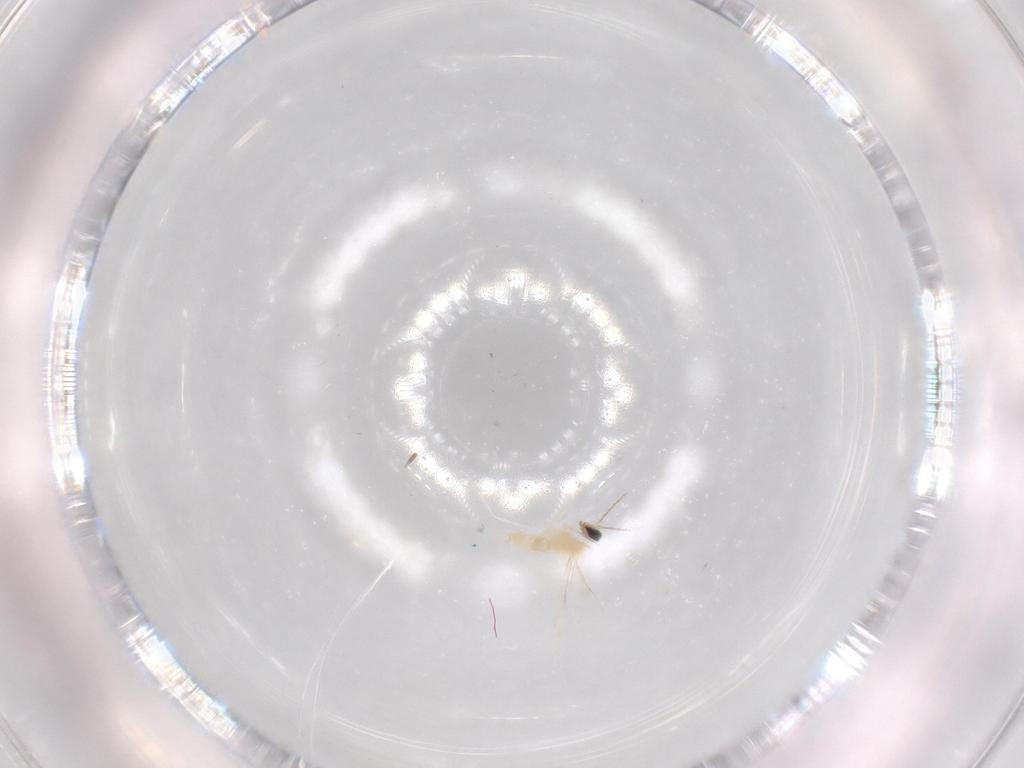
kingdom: Animalia
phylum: Arthropoda
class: Insecta
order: Diptera
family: Cecidomyiidae
